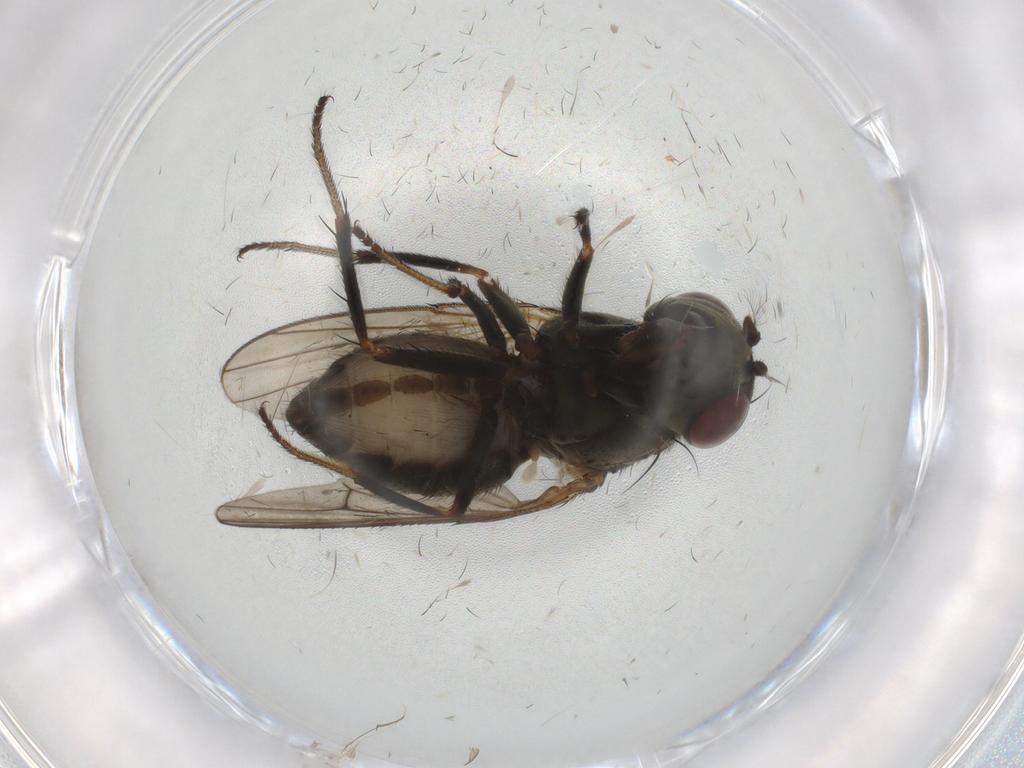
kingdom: Animalia
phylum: Arthropoda
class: Insecta
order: Diptera
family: Ephydridae
